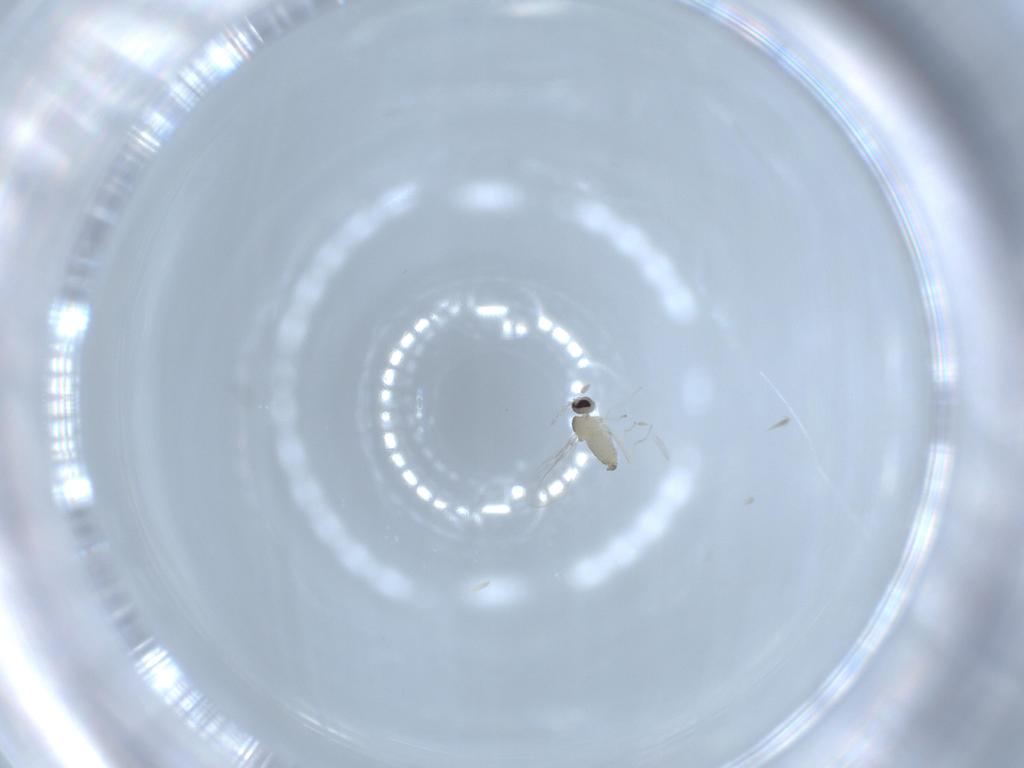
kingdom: Animalia
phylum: Arthropoda
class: Insecta
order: Diptera
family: Cecidomyiidae
